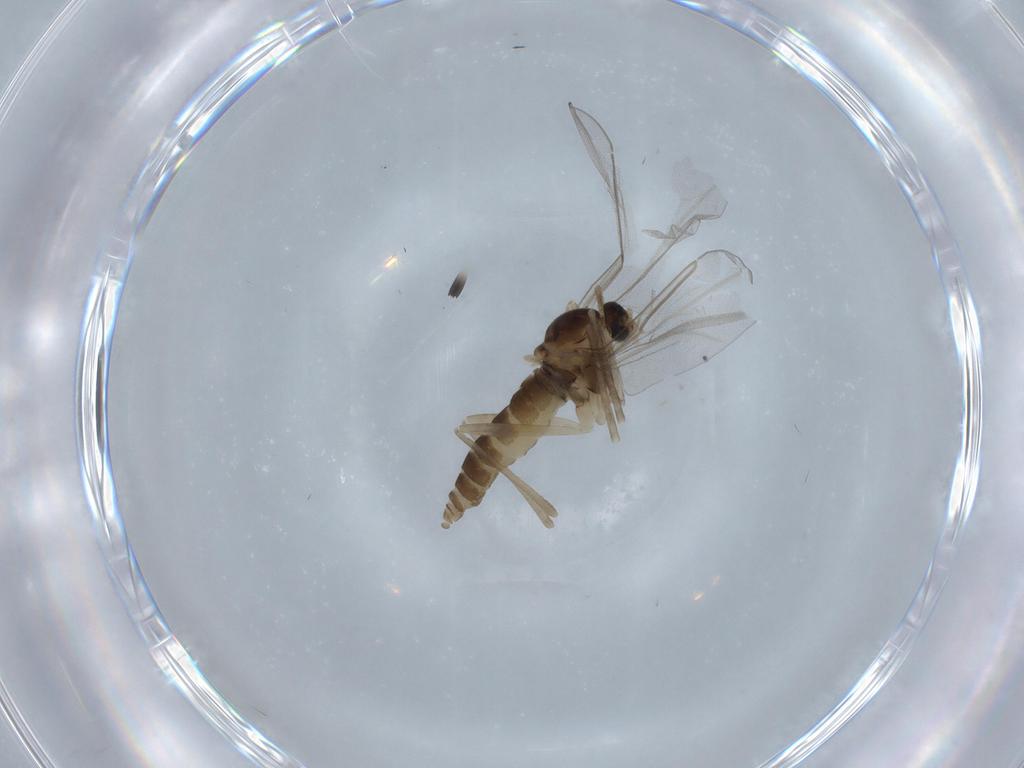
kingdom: Animalia
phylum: Arthropoda
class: Insecta
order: Diptera
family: Cecidomyiidae
